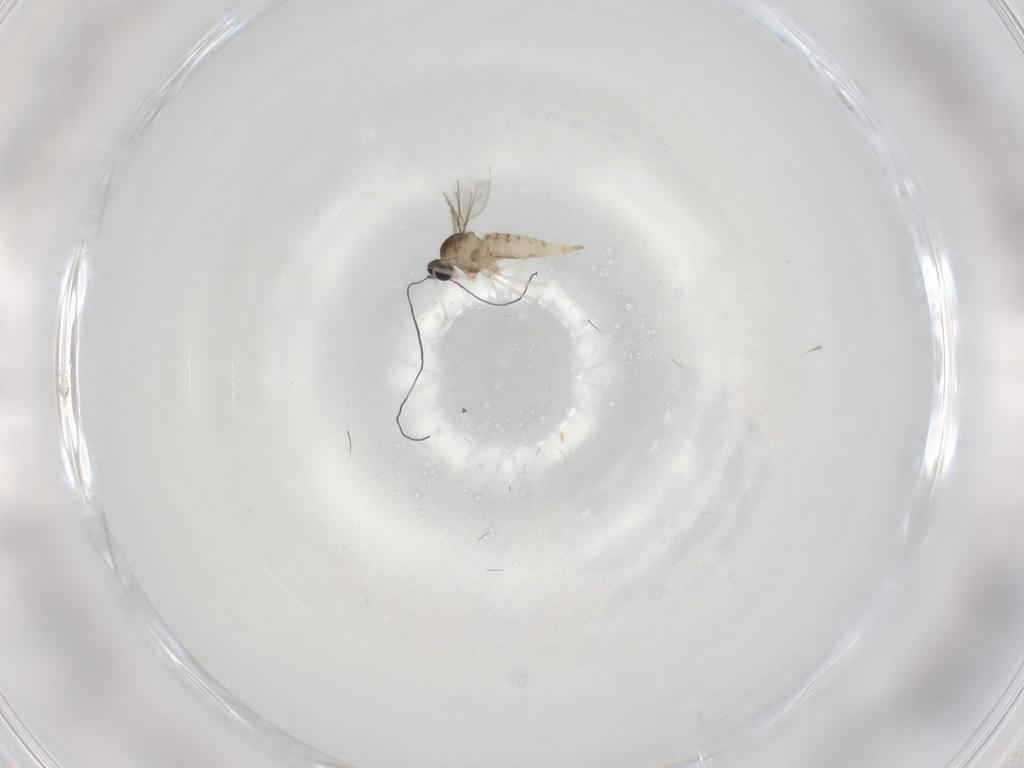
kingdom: Animalia
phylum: Arthropoda
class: Insecta
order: Diptera
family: Cecidomyiidae
